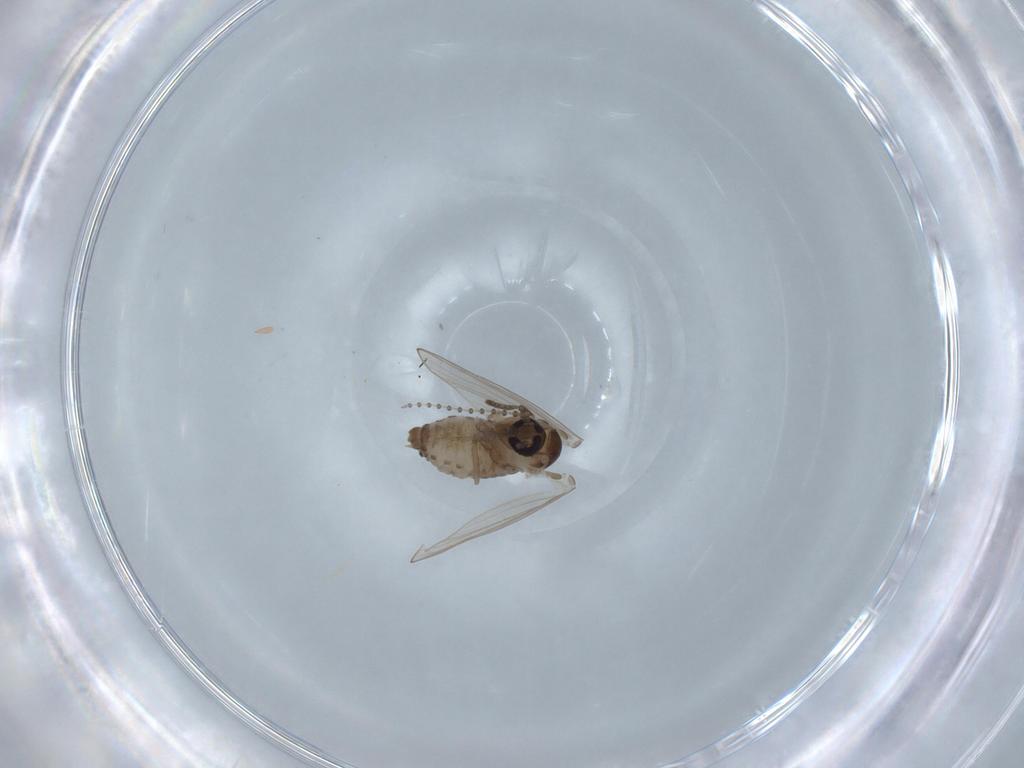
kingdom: Animalia
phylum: Arthropoda
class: Insecta
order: Diptera
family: Psychodidae
